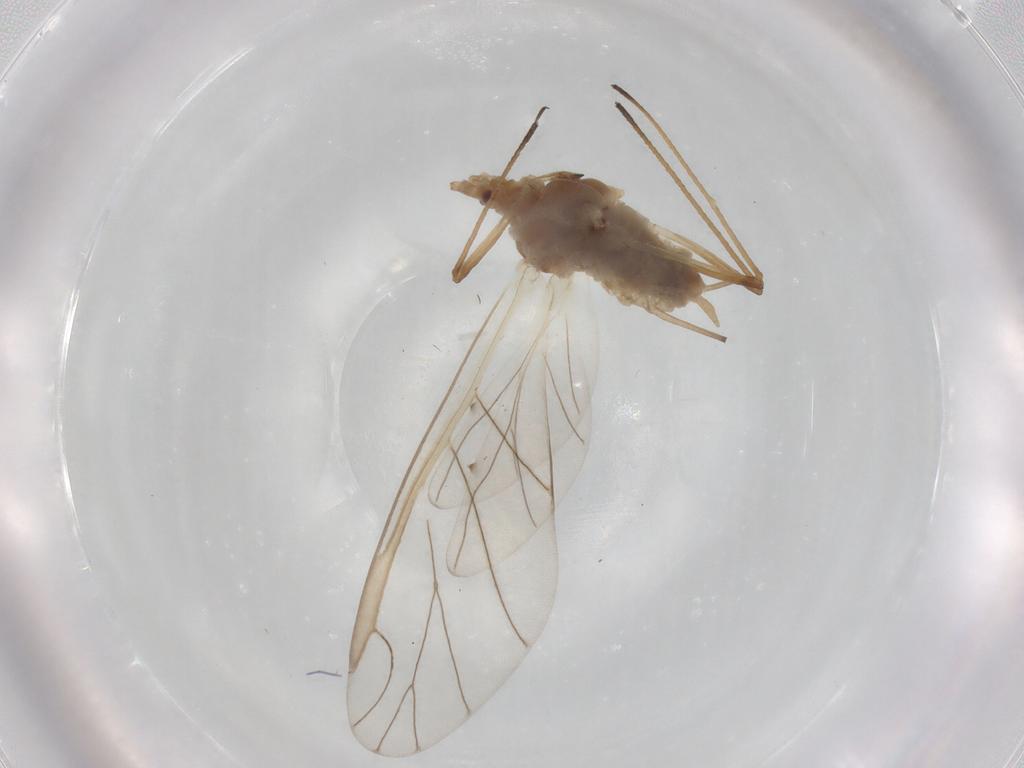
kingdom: Animalia
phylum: Arthropoda
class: Insecta
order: Hemiptera
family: Aphididae
